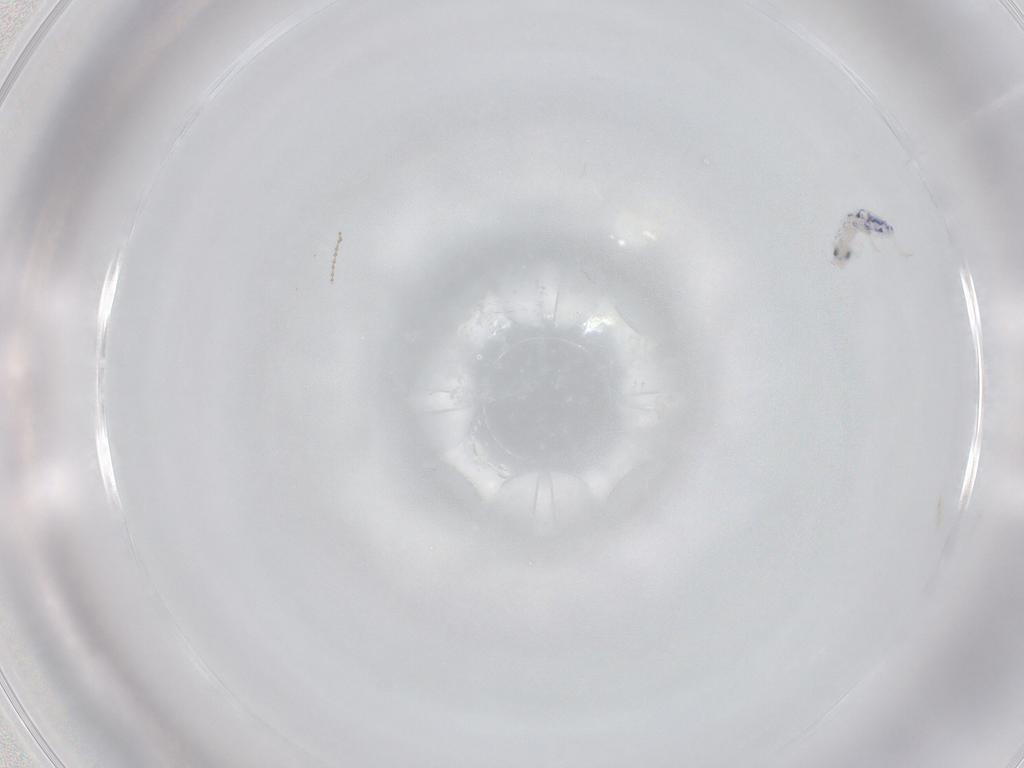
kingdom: Animalia
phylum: Arthropoda
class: Collembola
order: Entomobryomorpha
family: Entomobryidae
